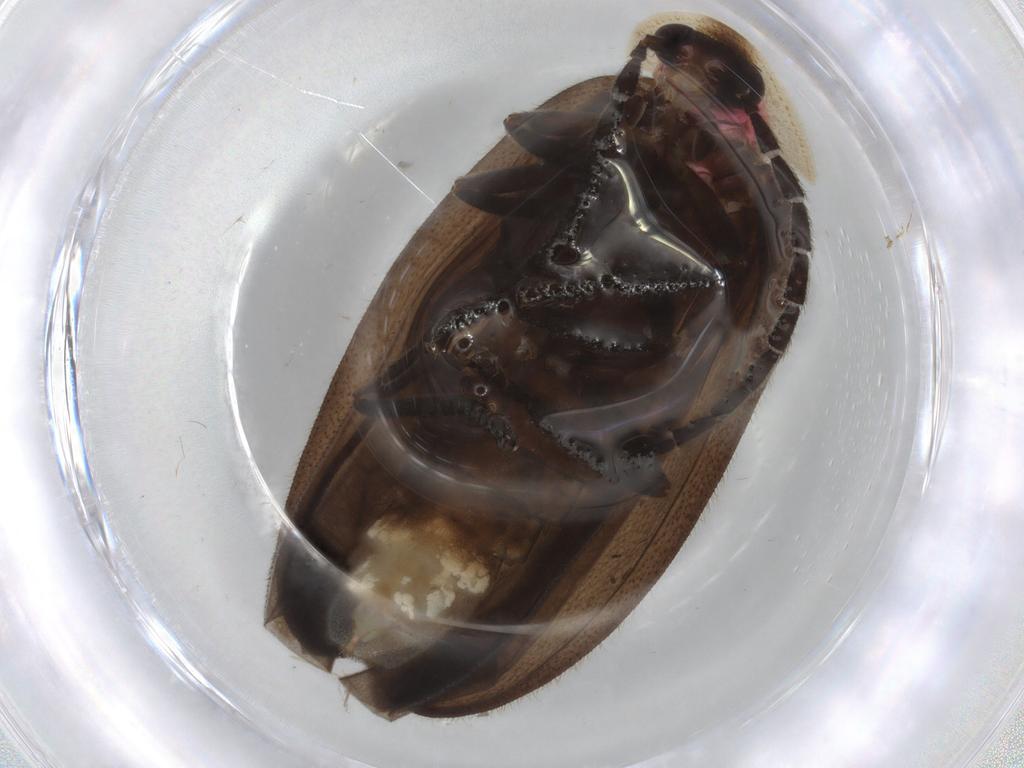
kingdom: Animalia
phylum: Arthropoda
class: Insecta
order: Coleoptera
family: Lampyridae
